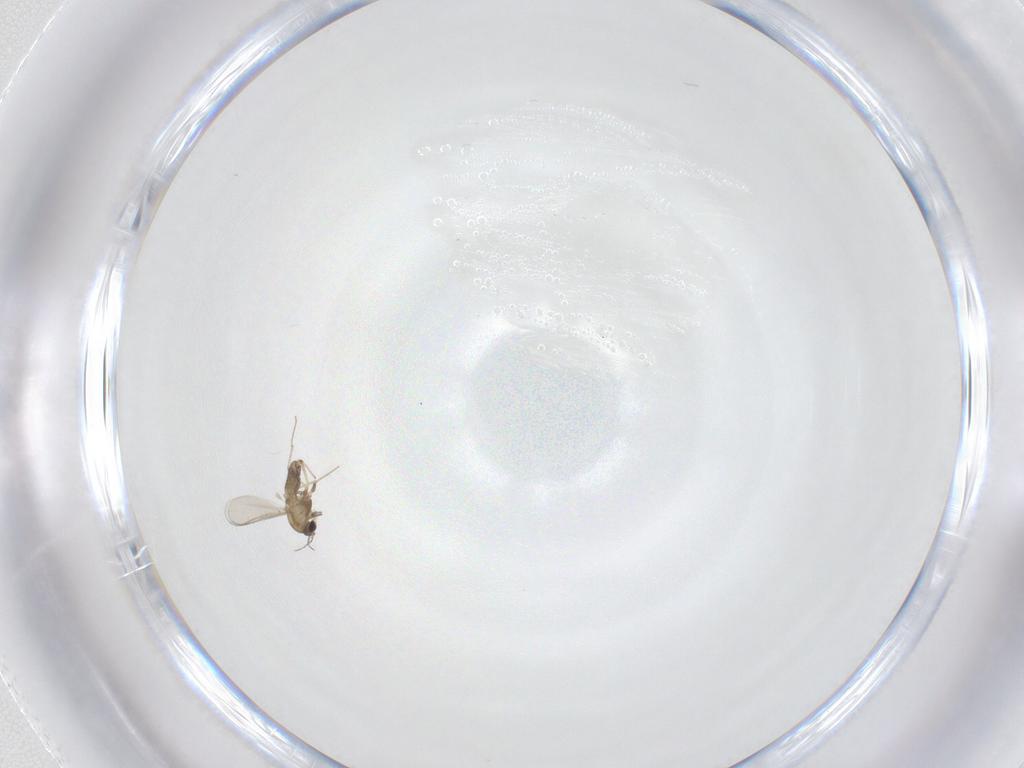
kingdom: Animalia
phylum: Arthropoda
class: Insecta
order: Diptera
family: Chironomidae
